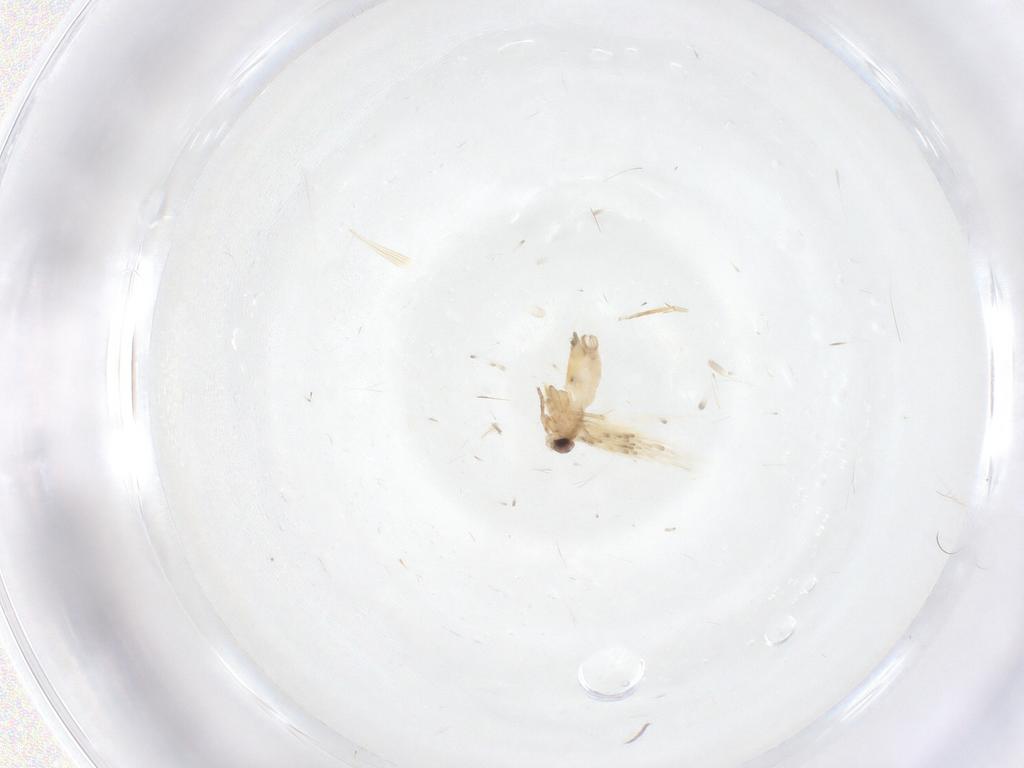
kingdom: Animalia
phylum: Arthropoda
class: Insecta
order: Lepidoptera
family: Nepticulidae
